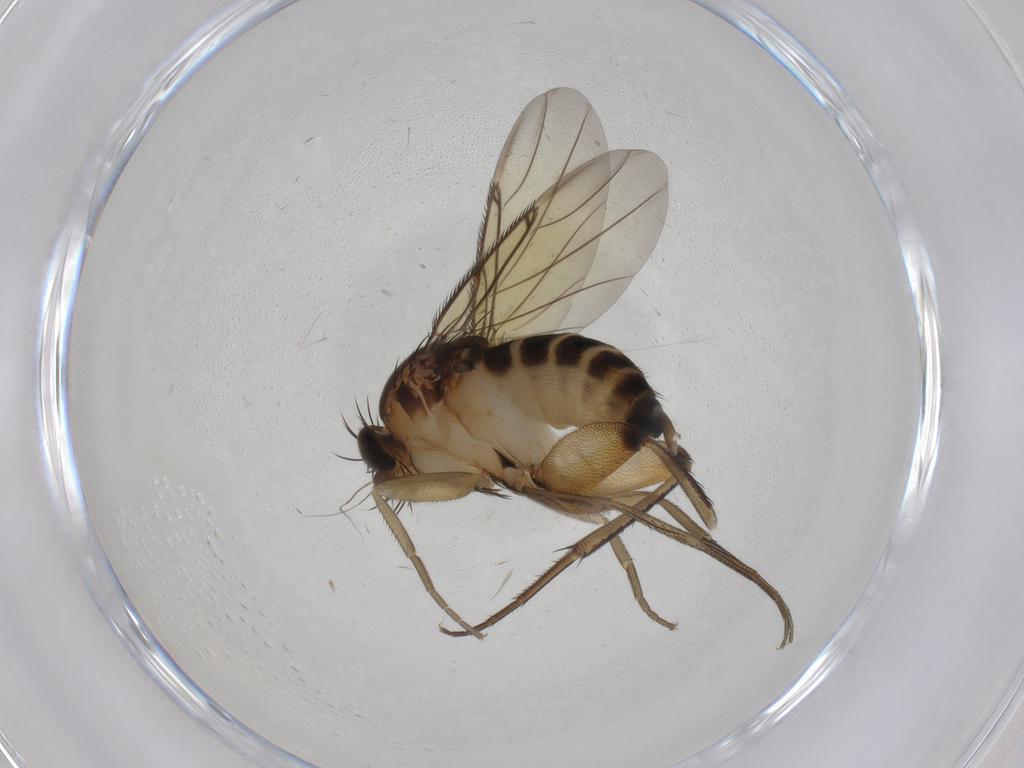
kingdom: Animalia
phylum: Arthropoda
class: Insecta
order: Diptera
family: Phoridae
